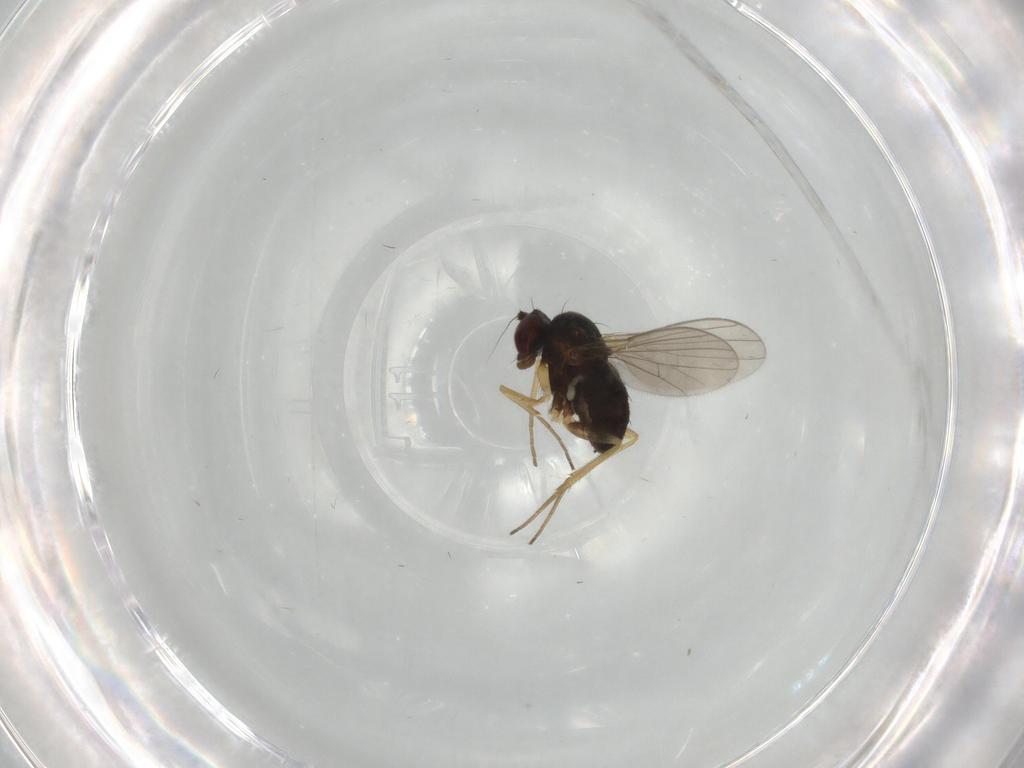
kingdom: Animalia
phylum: Arthropoda
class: Insecta
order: Diptera
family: Dolichopodidae
